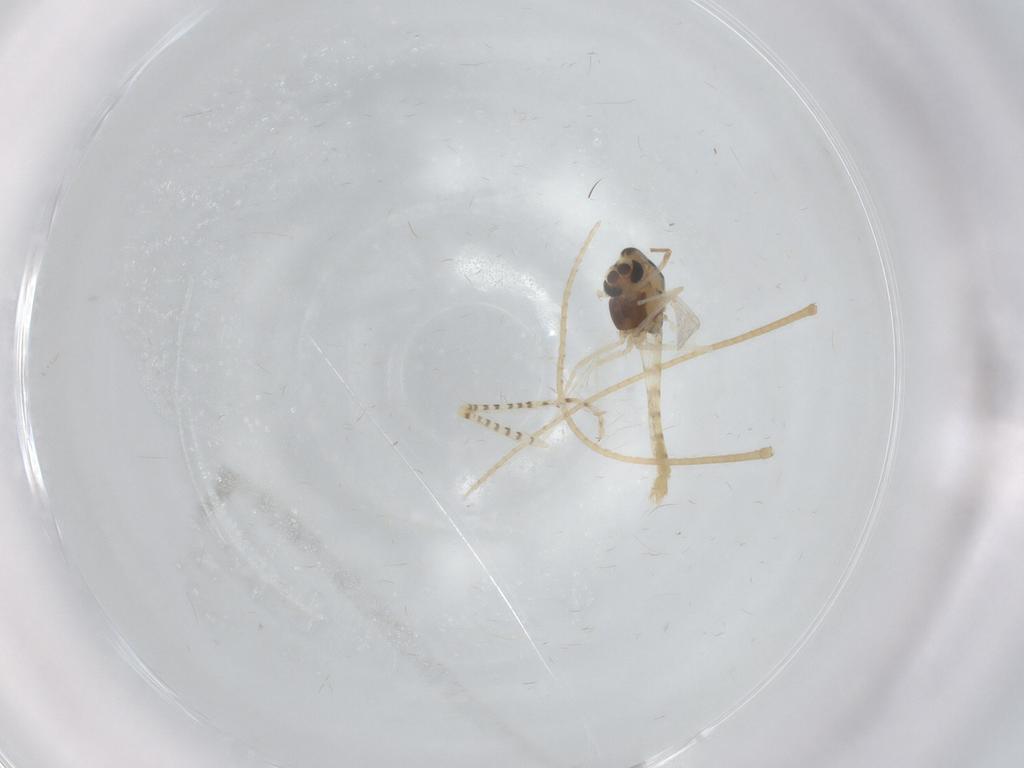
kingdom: Animalia
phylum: Arthropoda
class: Insecta
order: Diptera
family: Chironomidae
